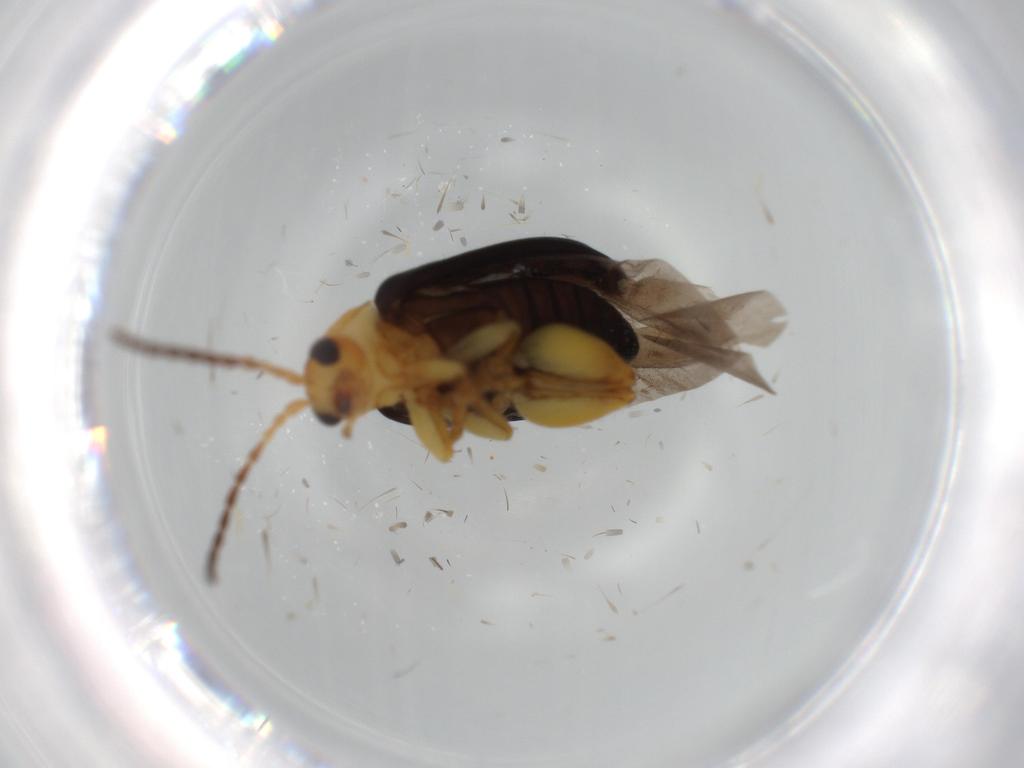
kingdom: Animalia
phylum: Arthropoda
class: Insecta
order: Coleoptera
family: Chrysomelidae
